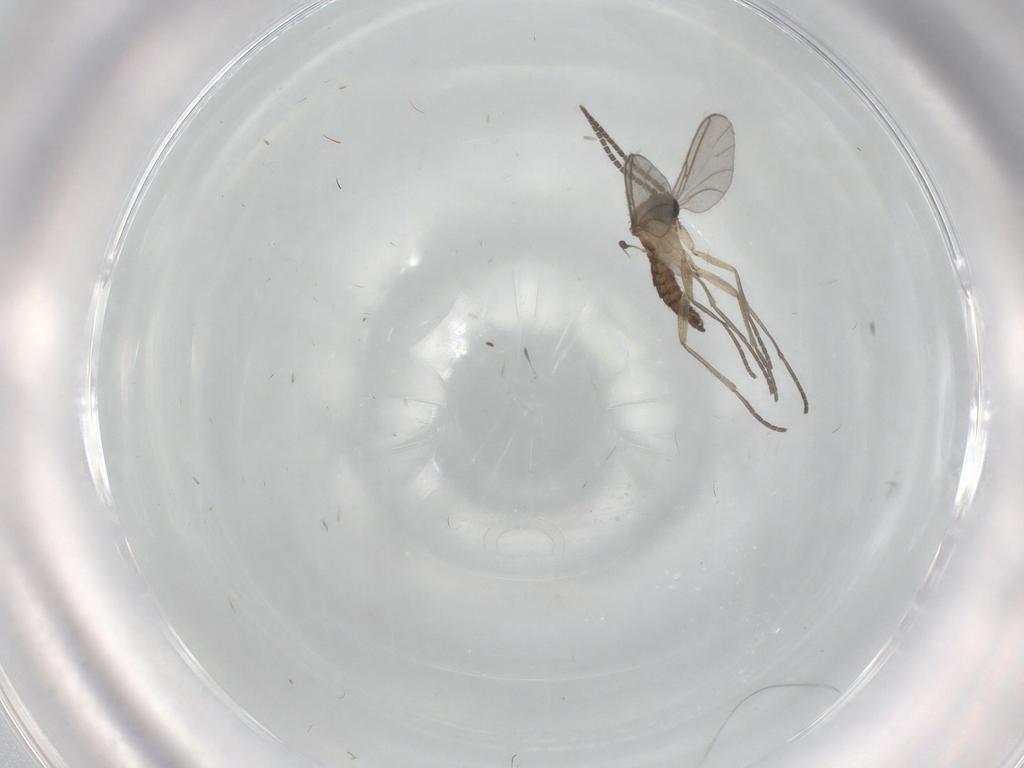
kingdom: Animalia
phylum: Arthropoda
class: Insecta
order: Diptera
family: Sciaridae
